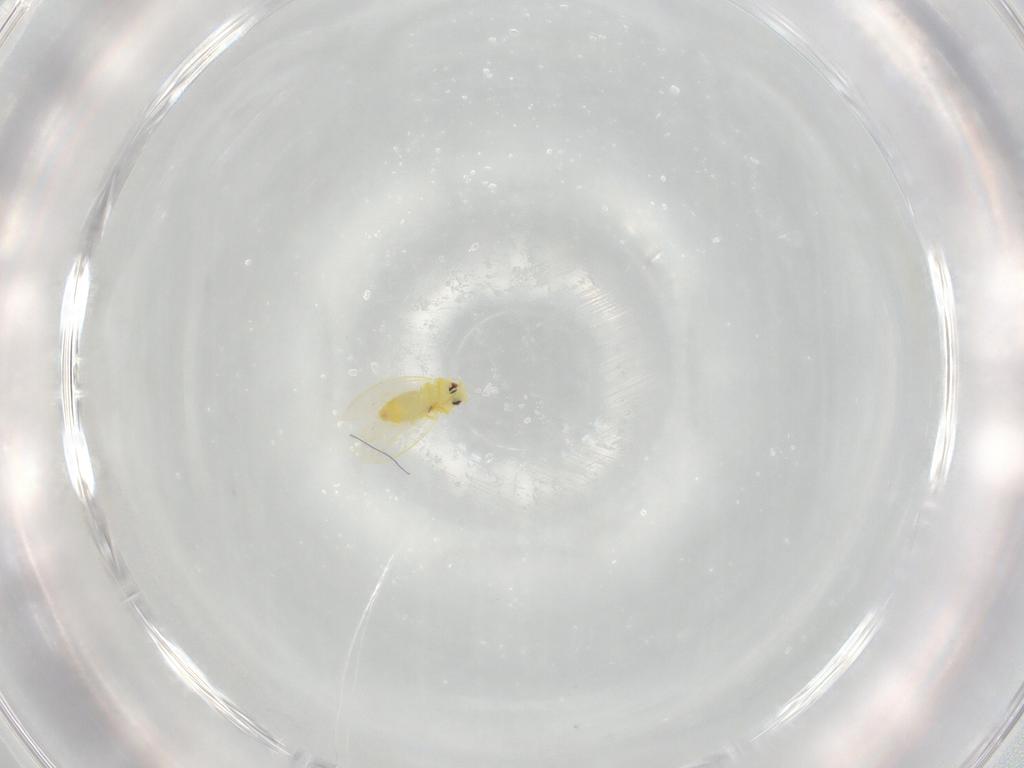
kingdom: Animalia
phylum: Arthropoda
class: Insecta
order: Hemiptera
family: Aleyrodidae
